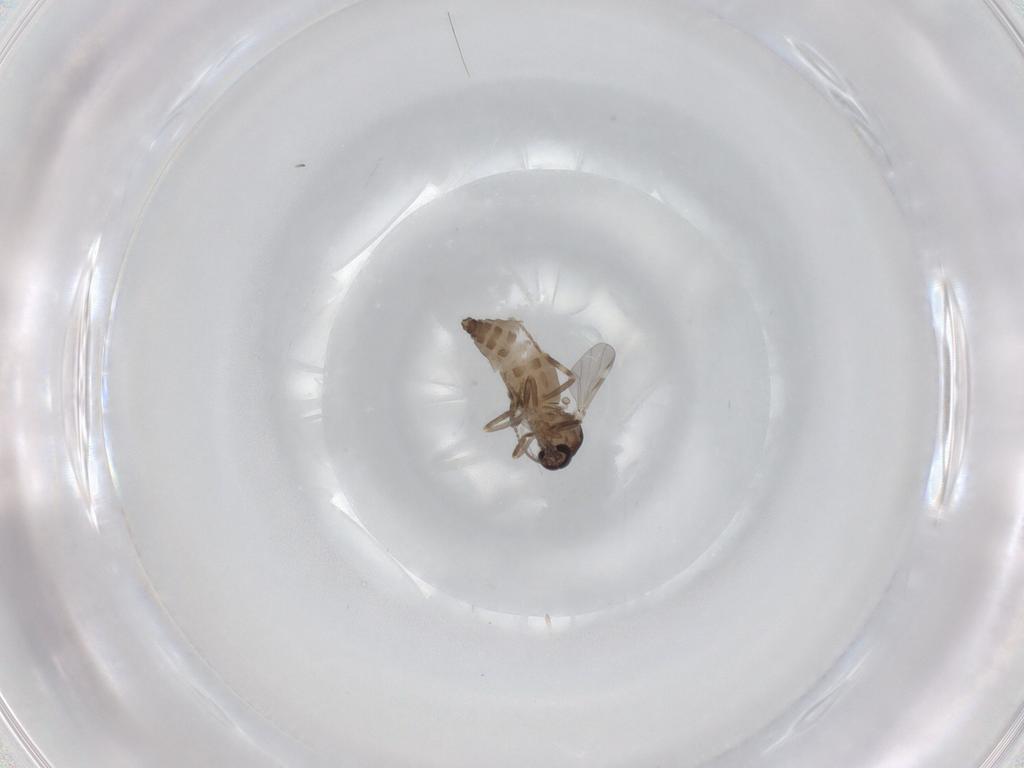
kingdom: Animalia
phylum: Arthropoda
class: Insecta
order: Diptera
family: Ceratopogonidae
